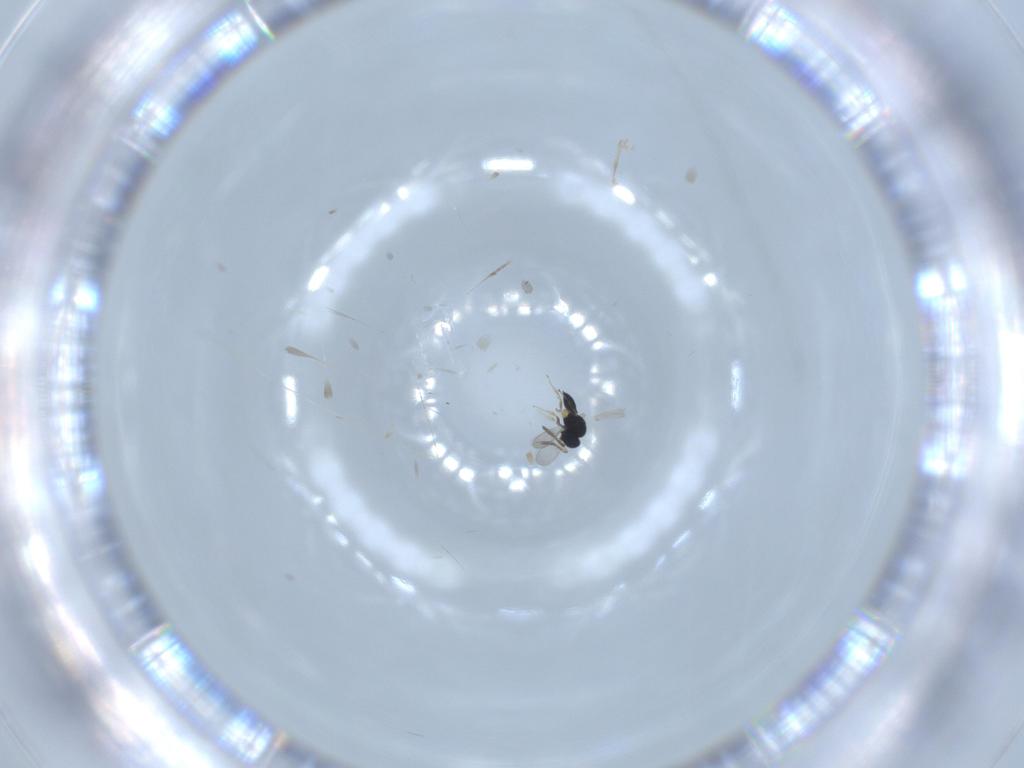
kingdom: Animalia
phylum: Arthropoda
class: Insecta
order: Hymenoptera
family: Scelionidae
